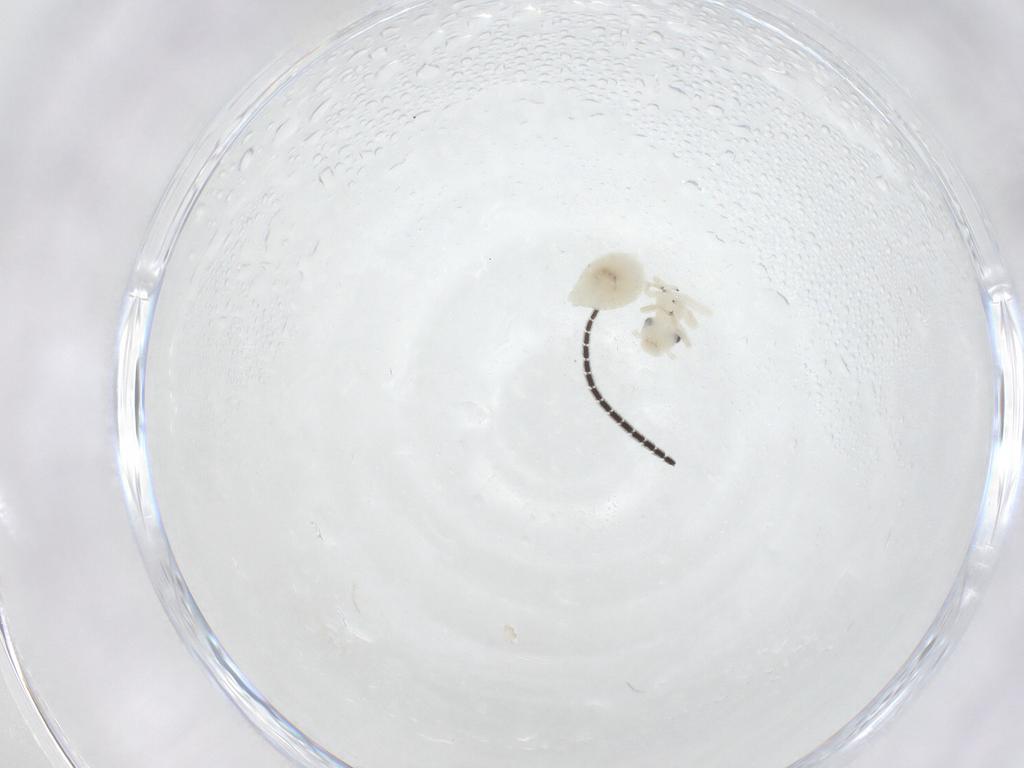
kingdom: Animalia
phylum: Arthropoda
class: Insecta
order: Psocodea
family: Caeciliusidae
